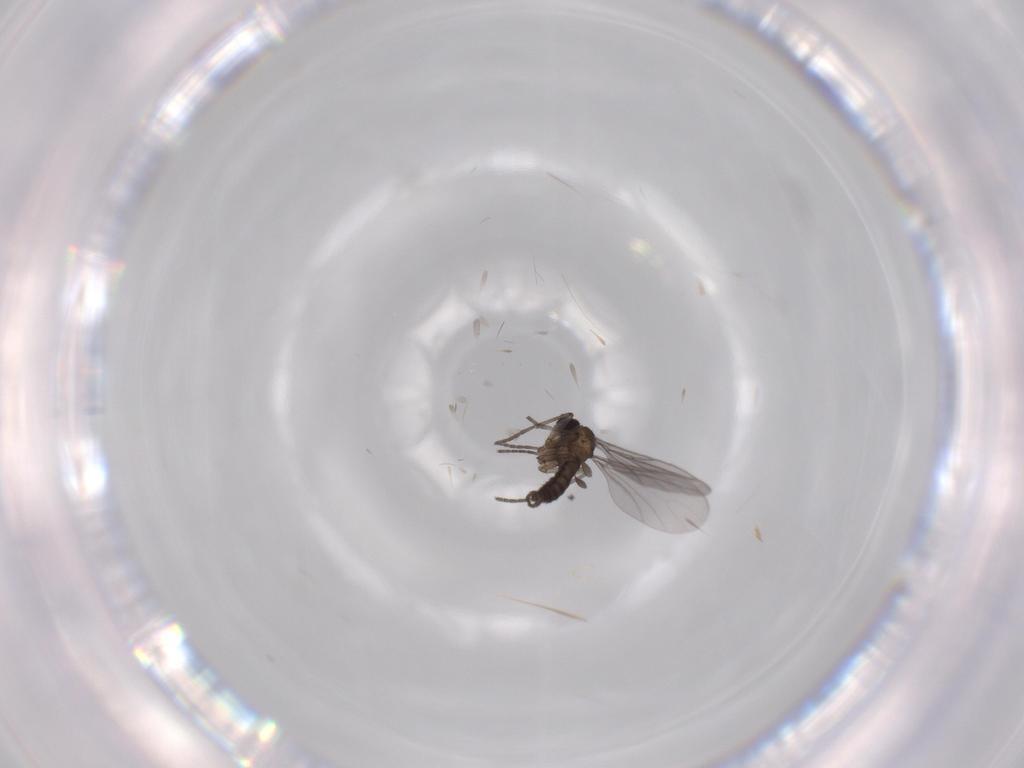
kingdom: Animalia
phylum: Arthropoda
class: Insecta
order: Diptera
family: Sciaridae
